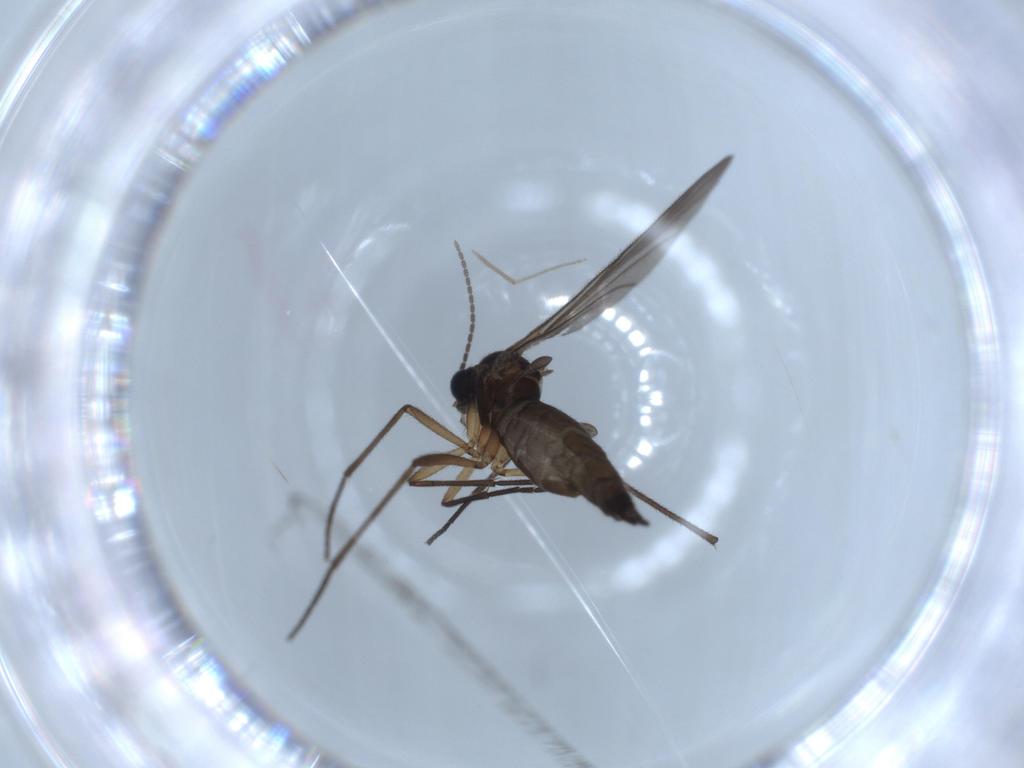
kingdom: Animalia
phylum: Arthropoda
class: Insecta
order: Diptera
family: Sciaridae
